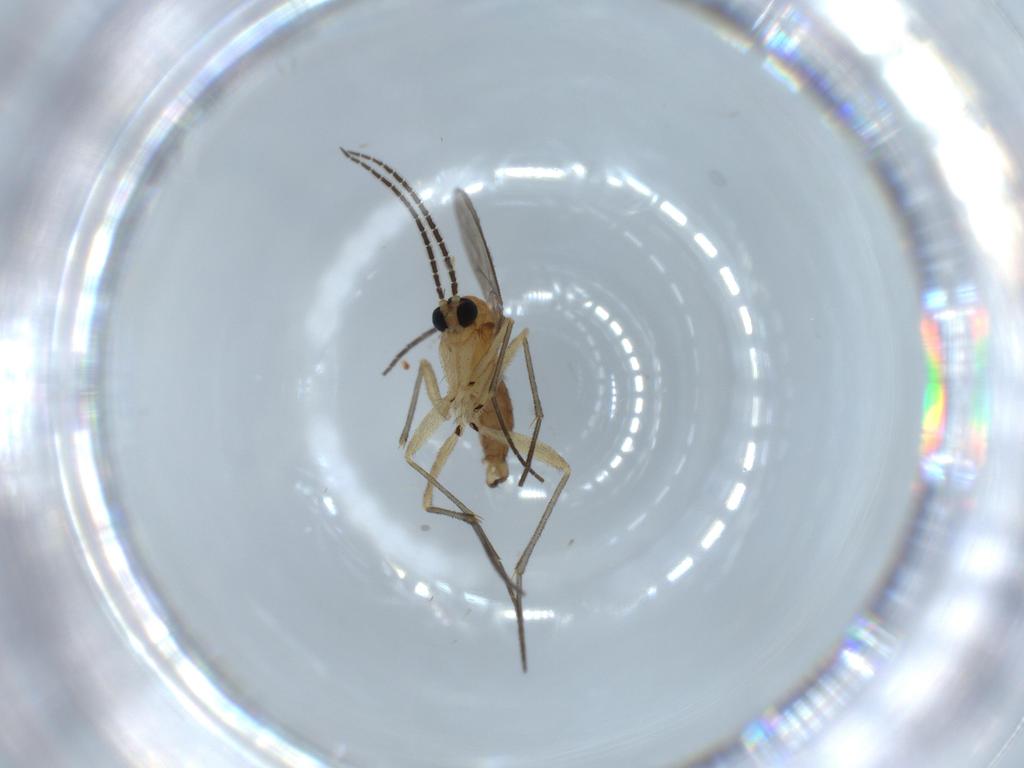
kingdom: Animalia
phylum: Arthropoda
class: Insecta
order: Diptera
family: Sciaridae
